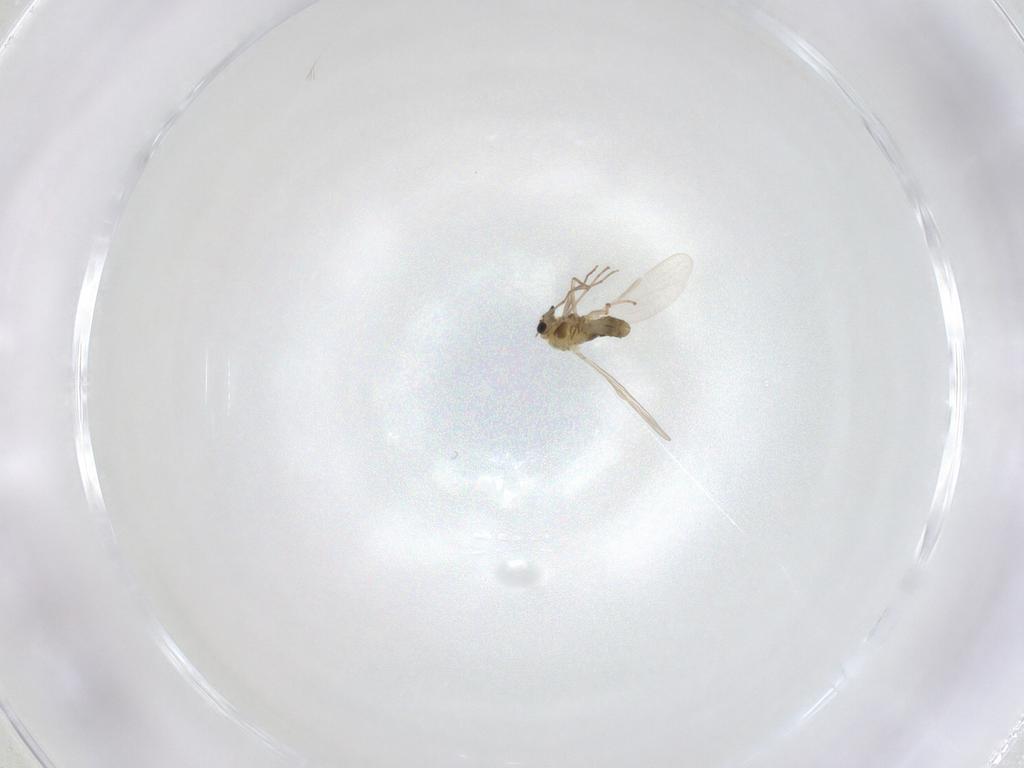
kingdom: Animalia
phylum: Arthropoda
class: Insecta
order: Diptera
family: Chironomidae
